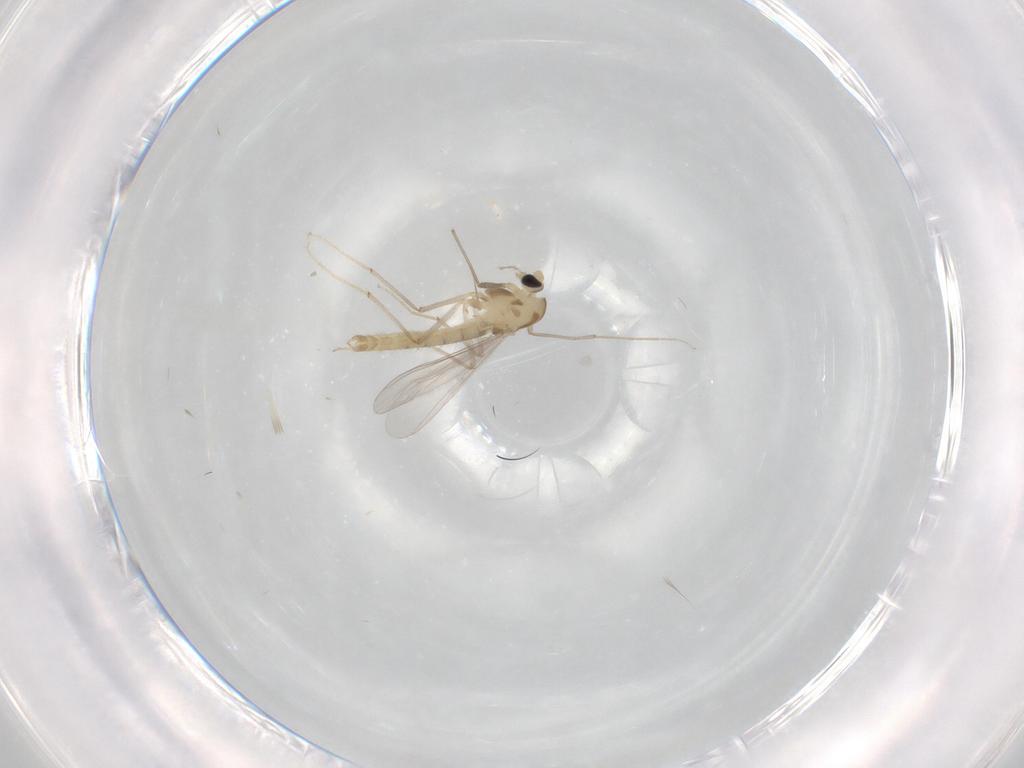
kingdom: Animalia
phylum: Arthropoda
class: Insecta
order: Diptera
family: Chironomidae
